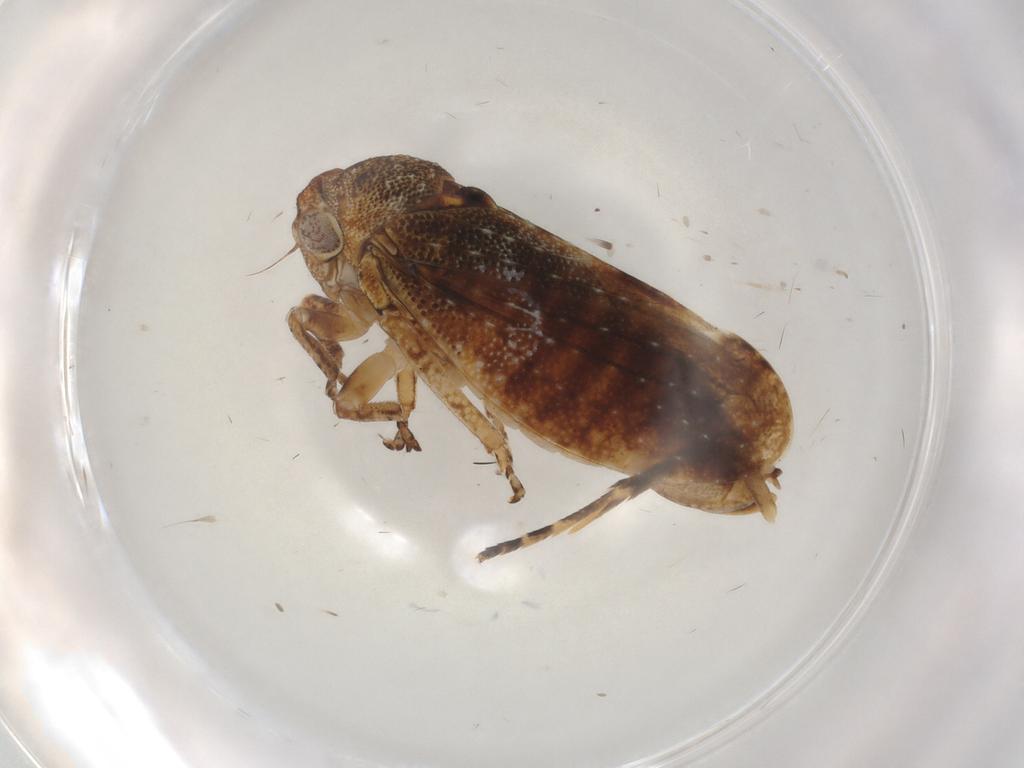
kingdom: Animalia
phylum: Arthropoda
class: Insecta
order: Hemiptera
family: Cicadellidae
